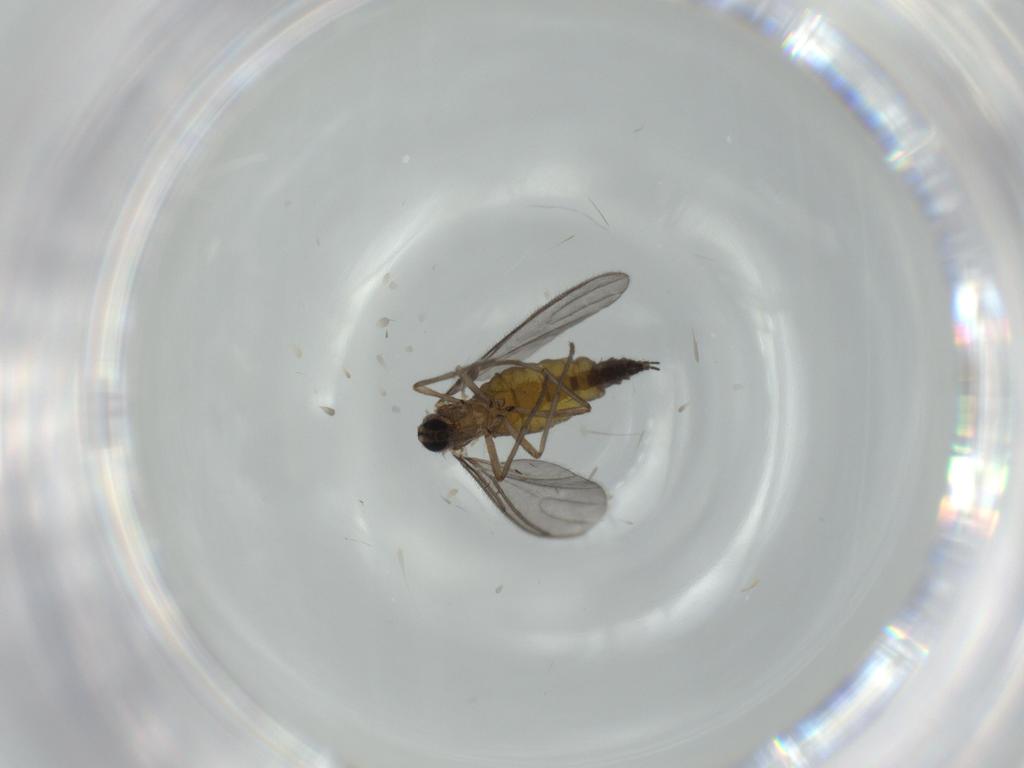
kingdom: Animalia
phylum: Arthropoda
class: Insecta
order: Diptera
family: Sciaridae
